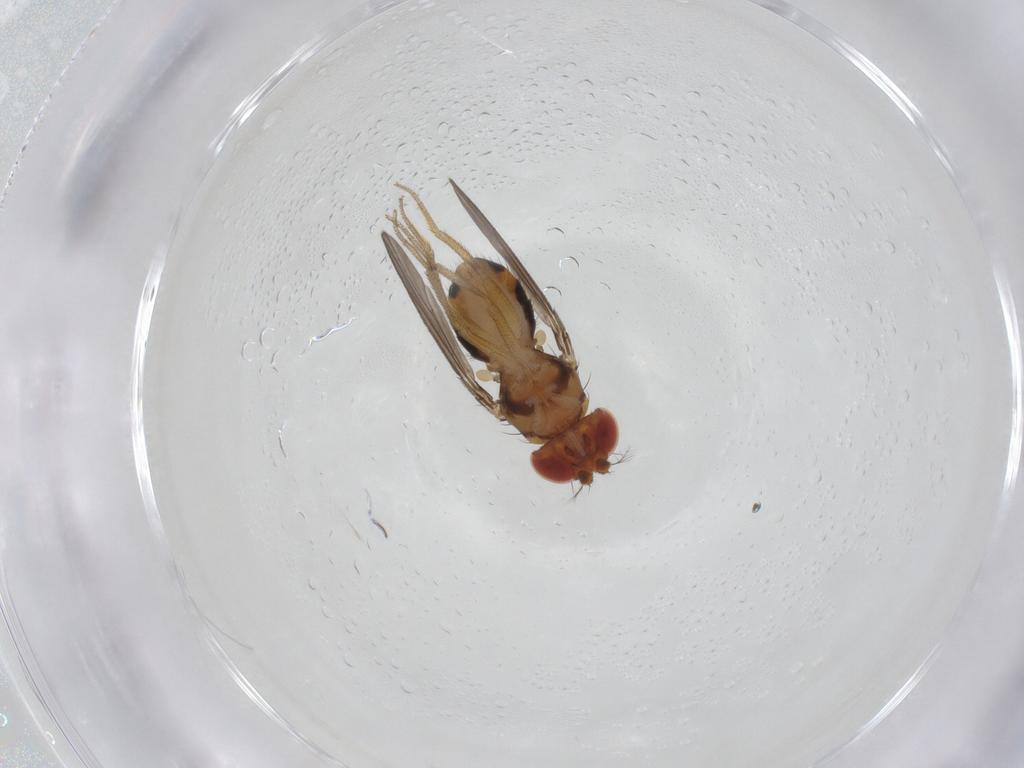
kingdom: Animalia
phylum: Arthropoda
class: Insecta
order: Diptera
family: Drosophilidae
